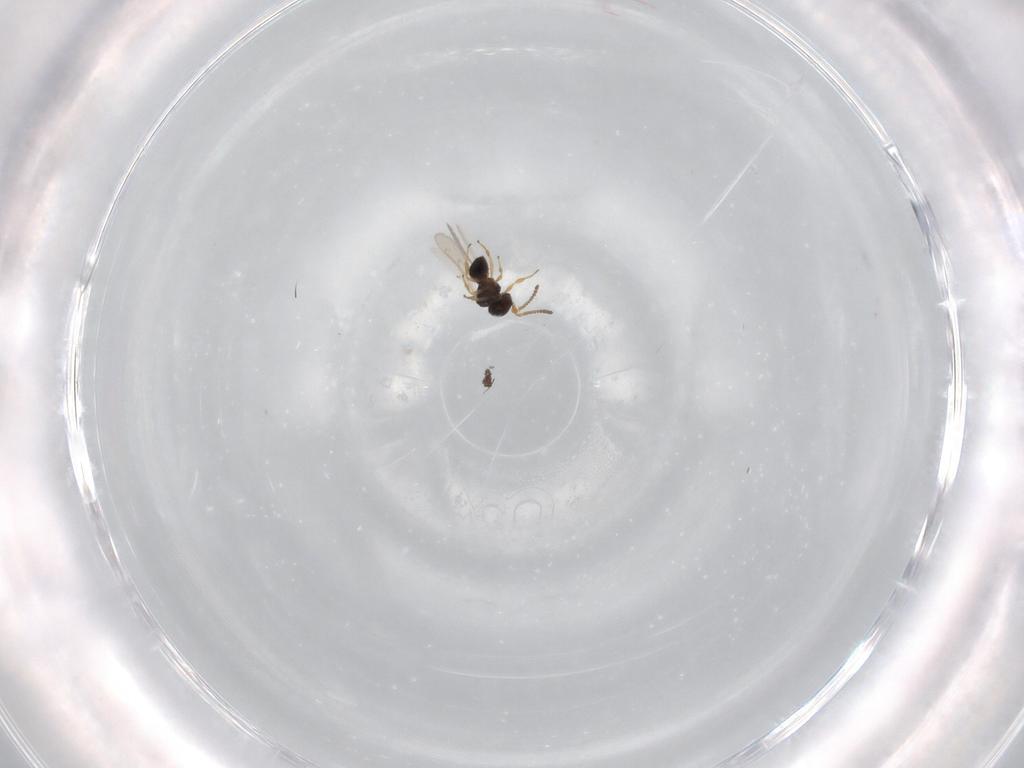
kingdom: Animalia
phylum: Arthropoda
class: Insecta
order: Hymenoptera
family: Scelionidae
